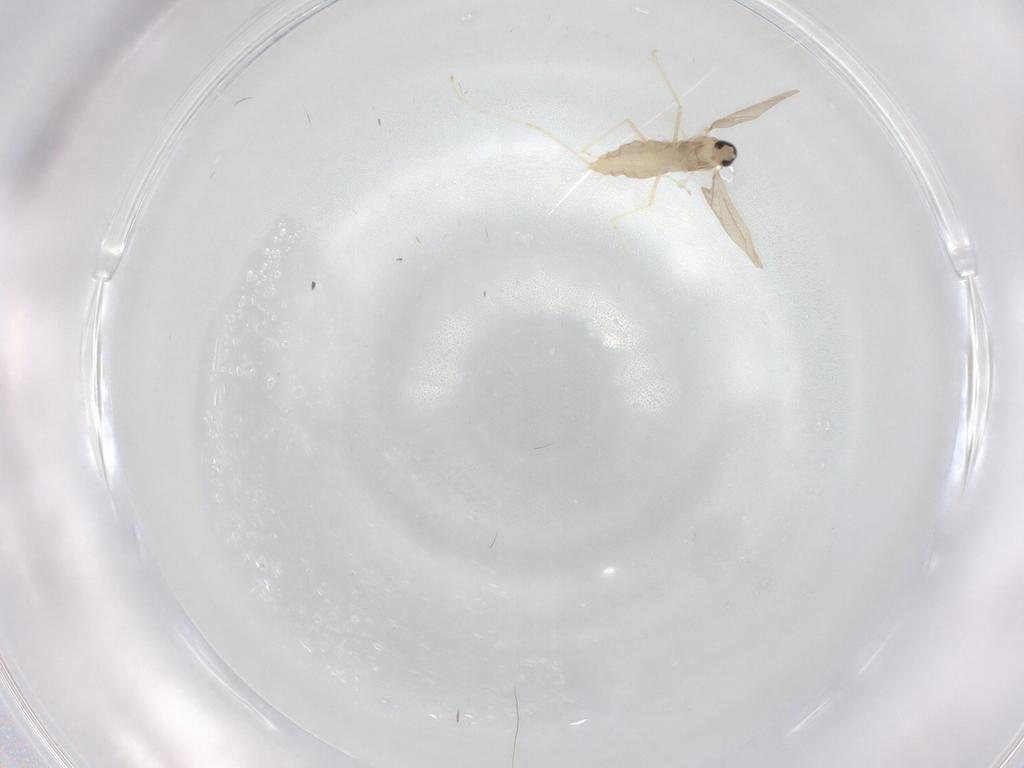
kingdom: Animalia
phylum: Arthropoda
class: Insecta
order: Diptera
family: Cecidomyiidae
